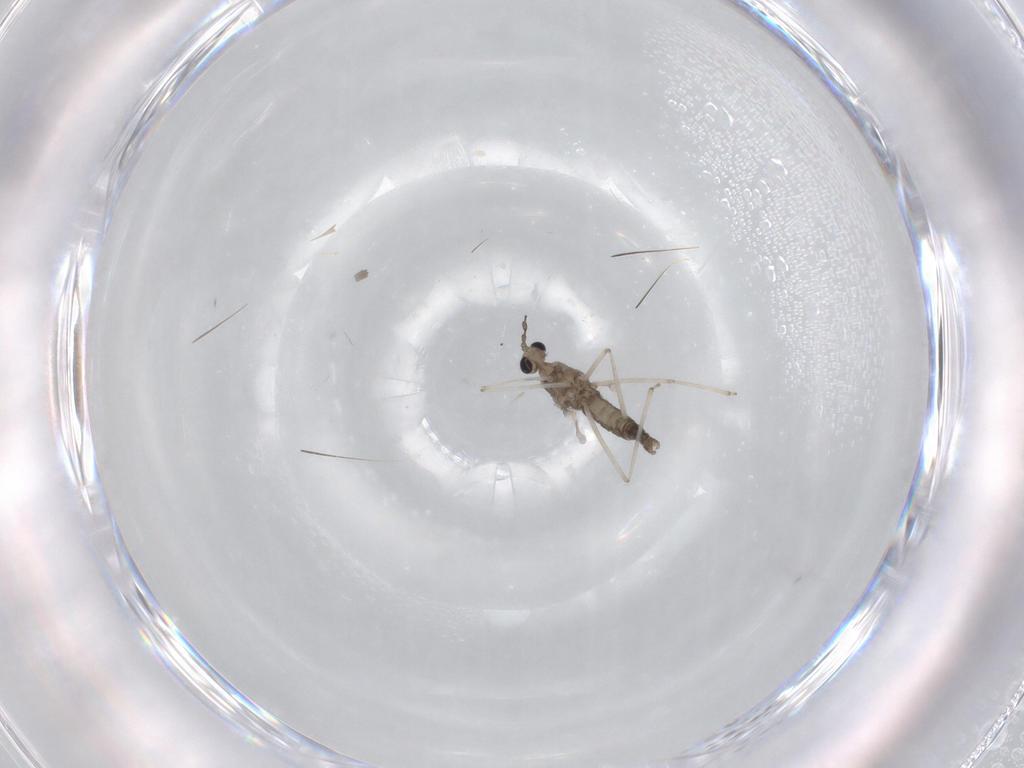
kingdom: Animalia
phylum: Arthropoda
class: Insecta
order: Diptera
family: Cecidomyiidae
